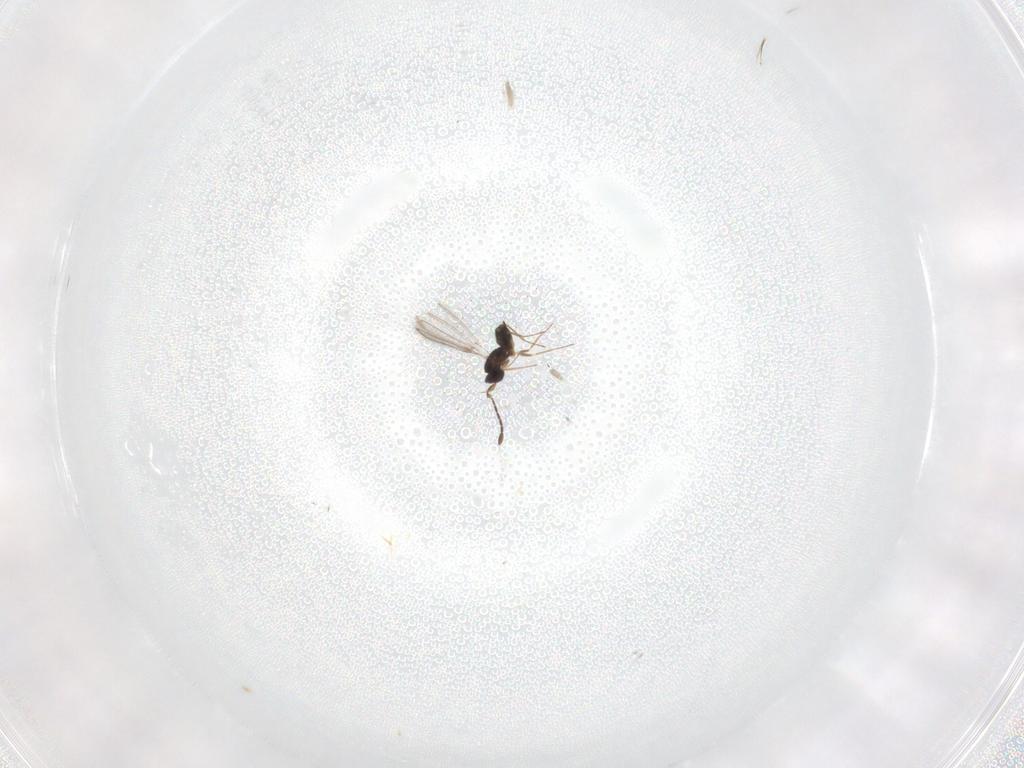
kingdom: Animalia
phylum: Arthropoda
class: Insecta
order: Hymenoptera
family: Mymaridae
